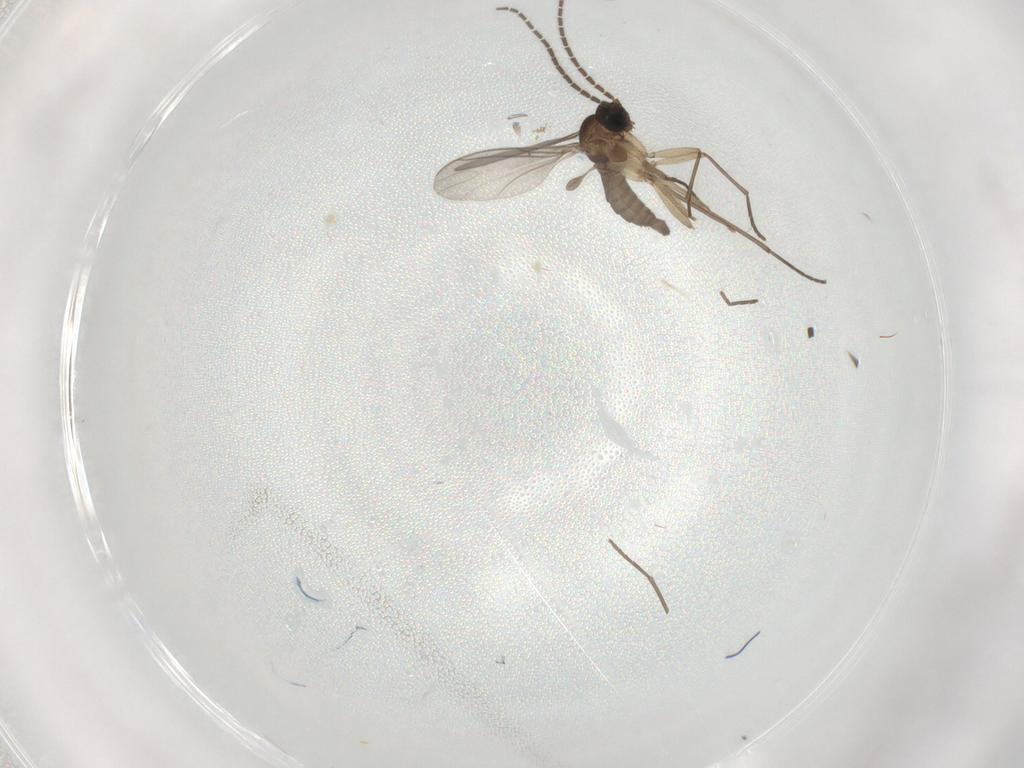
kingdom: Animalia
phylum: Arthropoda
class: Insecta
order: Diptera
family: Sciaridae
